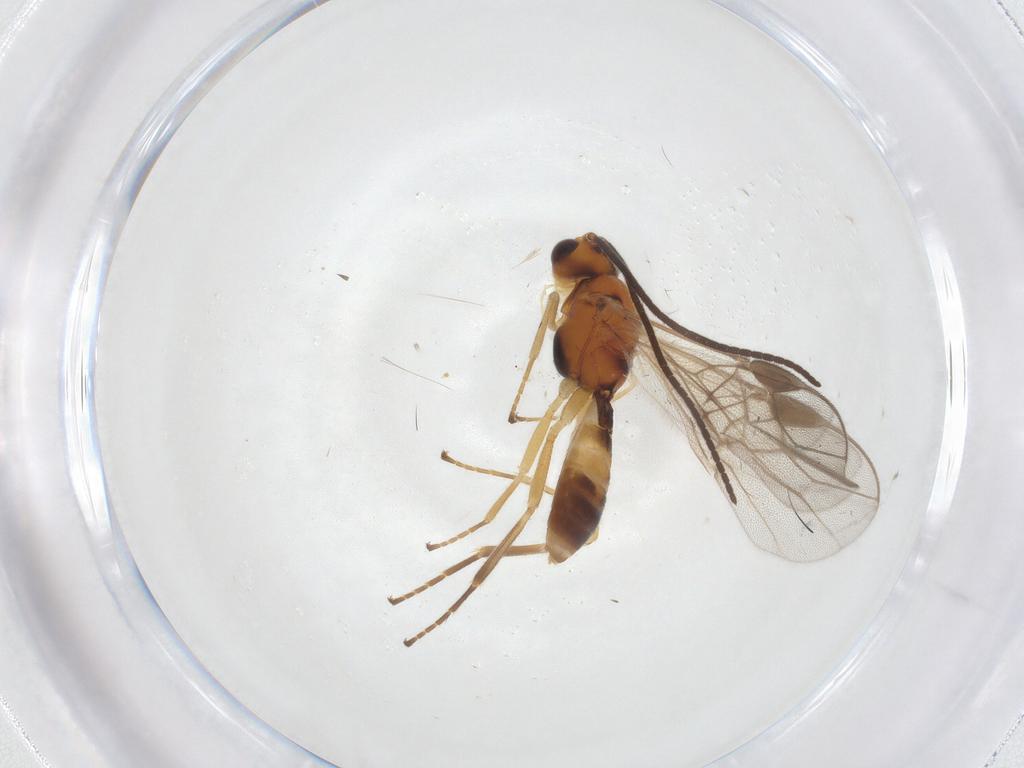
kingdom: Animalia
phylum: Arthropoda
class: Insecta
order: Hymenoptera
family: Braconidae
